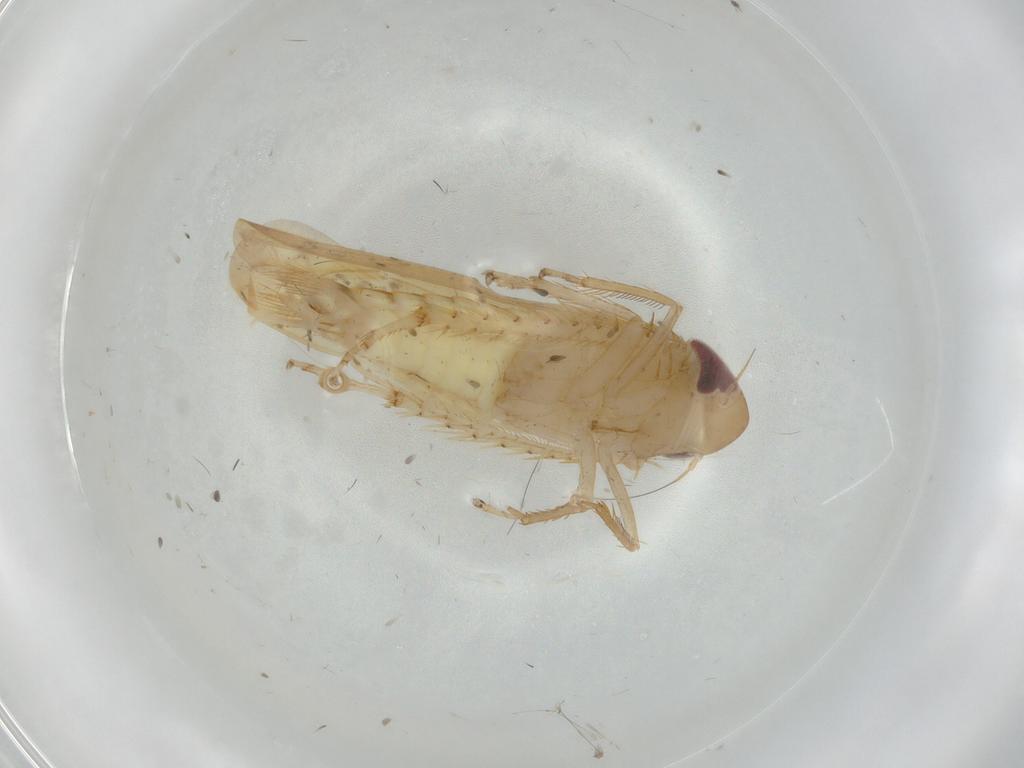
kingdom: Animalia
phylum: Arthropoda
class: Insecta
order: Hemiptera
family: Cicadellidae
